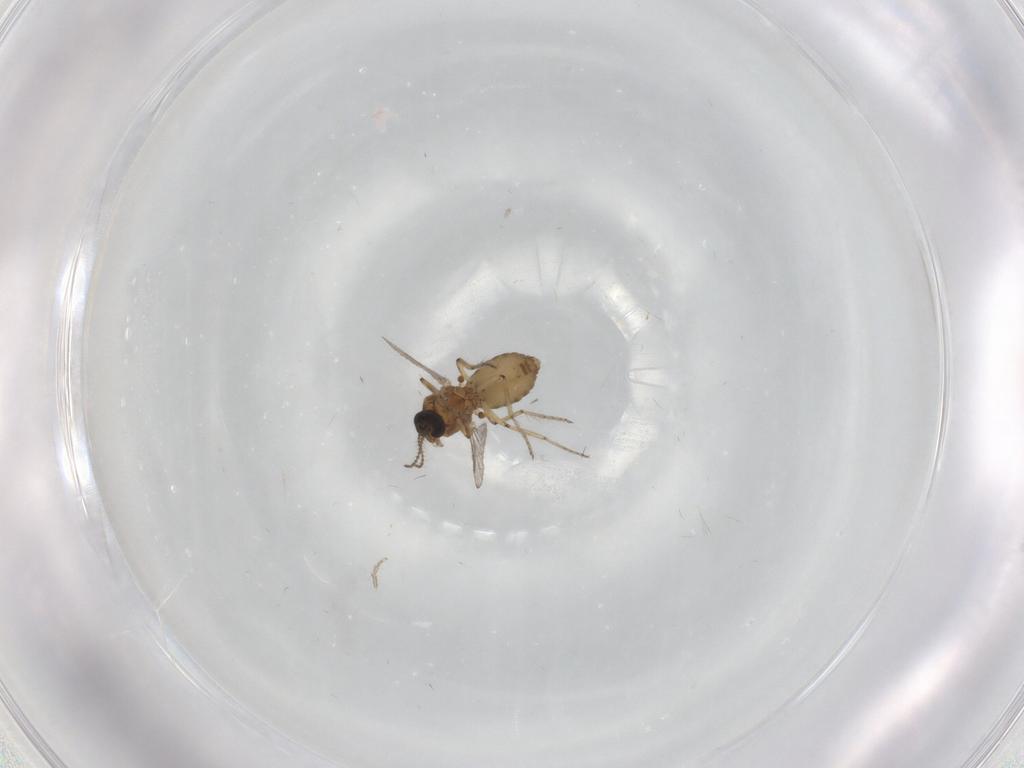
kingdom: Animalia
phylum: Arthropoda
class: Insecta
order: Diptera
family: Ceratopogonidae
